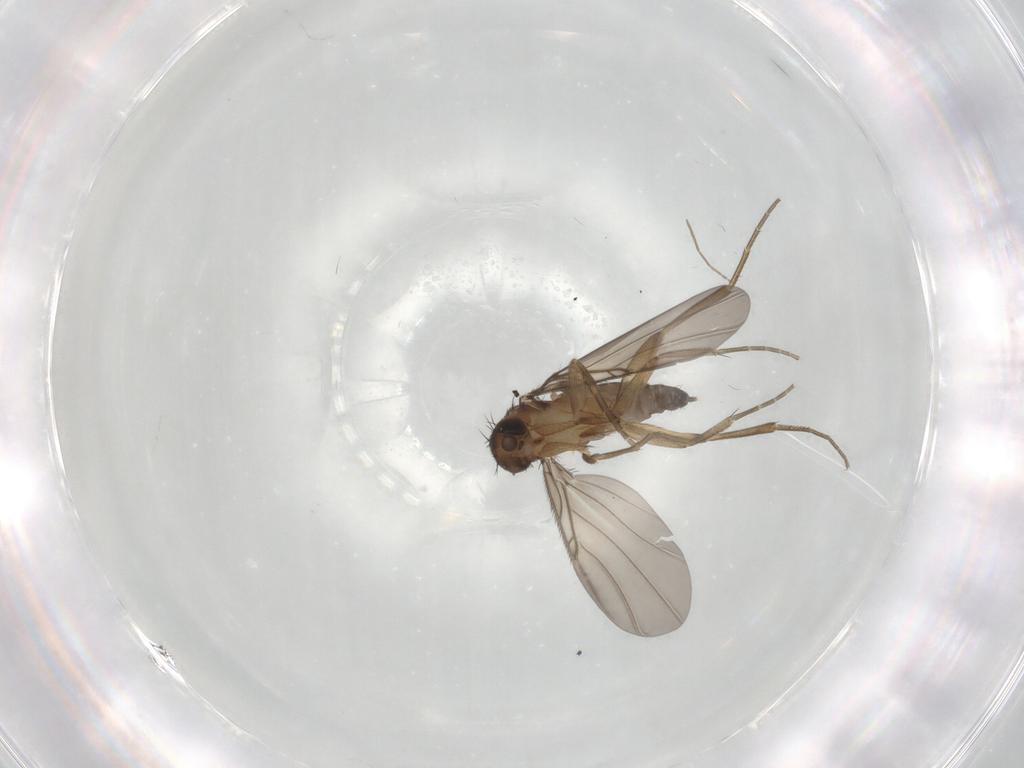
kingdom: Animalia
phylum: Arthropoda
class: Insecta
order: Diptera
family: Phoridae
